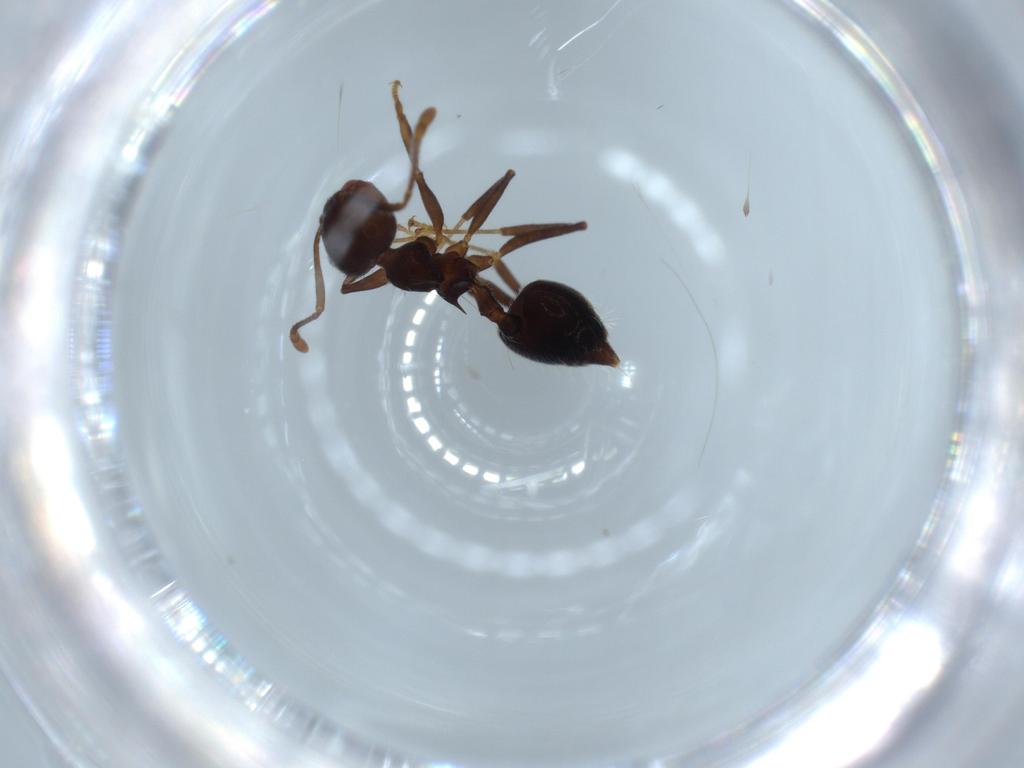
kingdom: Animalia
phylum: Arthropoda
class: Insecta
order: Hymenoptera
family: Formicidae
